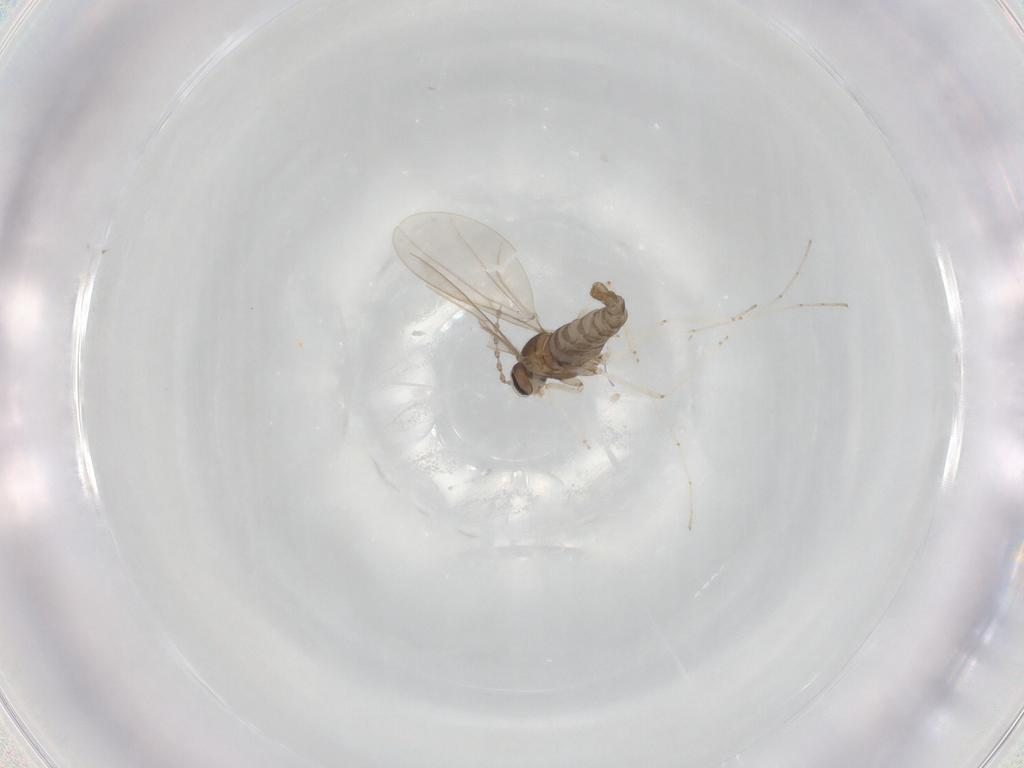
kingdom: Animalia
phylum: Arthropoda
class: Insecta
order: Diptera
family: Cecidomyiidae
